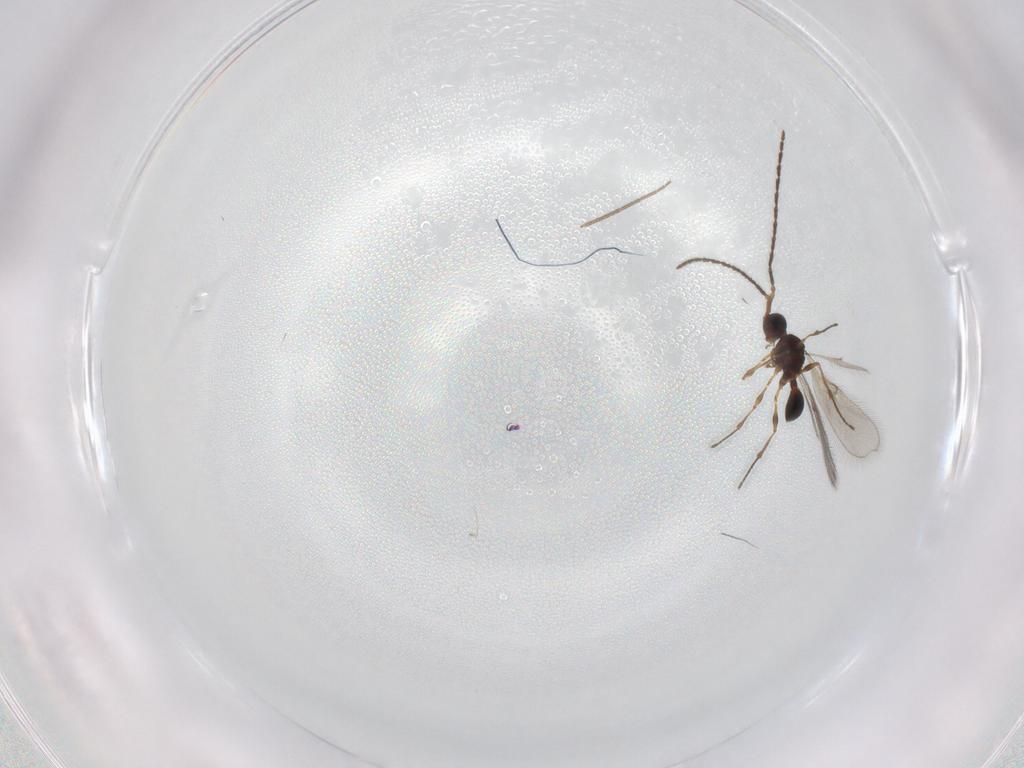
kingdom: Animalia
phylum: Arthropoda
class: Insecta
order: Hymenoptera
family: Diapriidae
